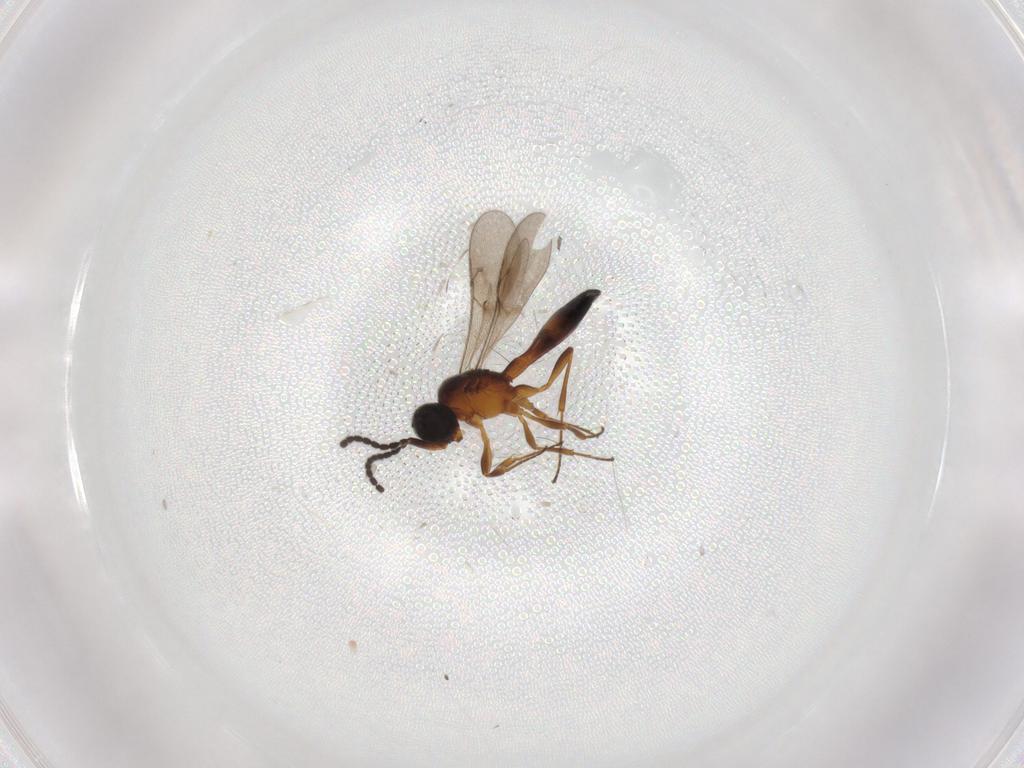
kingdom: Animalia
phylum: Arthropoda
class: Insecta
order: Hymenoptera
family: Scelionidae
